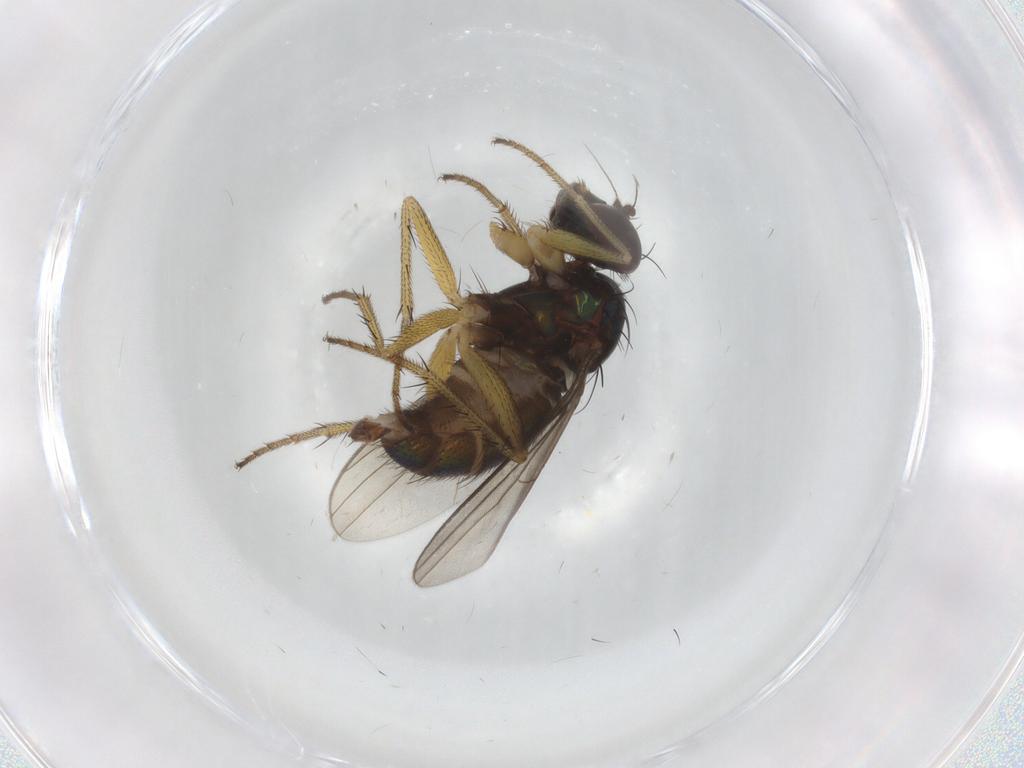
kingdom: Animalia
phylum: Arthropoda
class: Insecta
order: Diptera
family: Dolichopodidae
